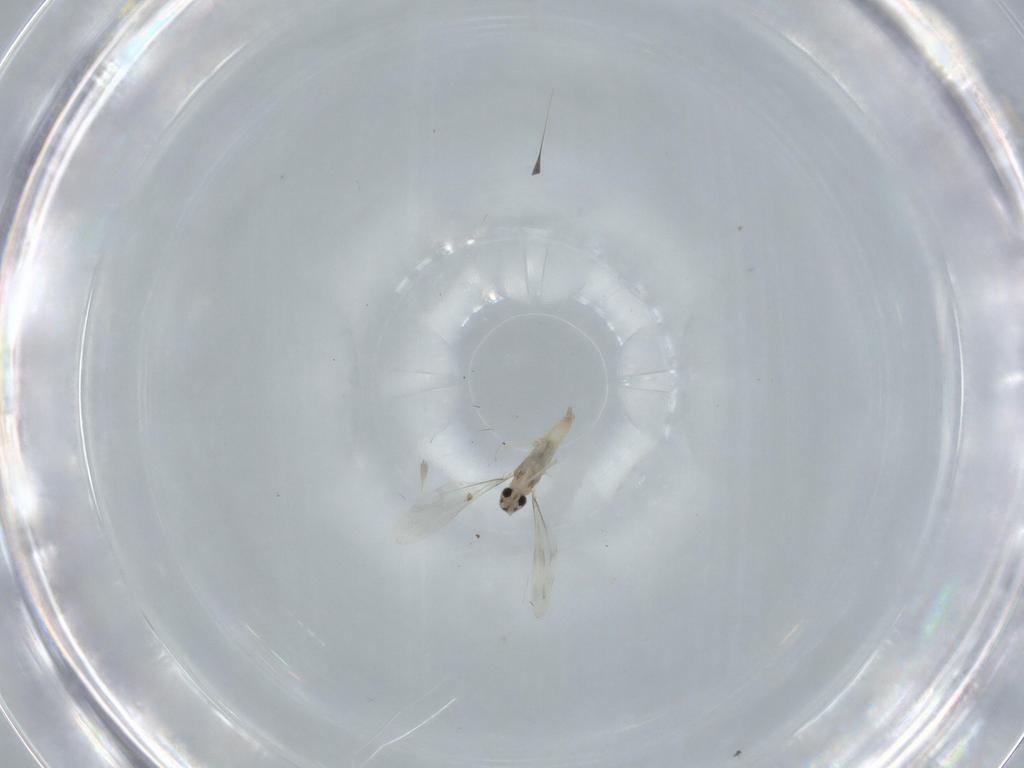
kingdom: Animalia
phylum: Arthropoda
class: Insecta
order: Diptera
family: Cecidomyiidae
